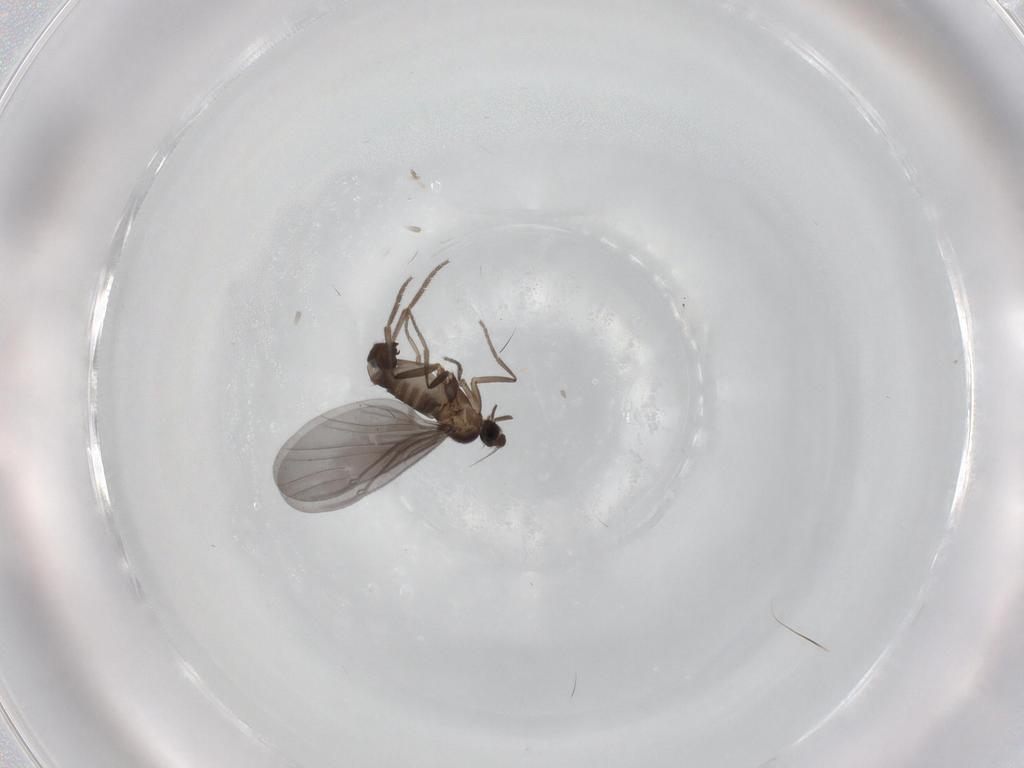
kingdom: Animalia
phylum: Arthropoda
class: Insecta
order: Diptera
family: Phoridae
